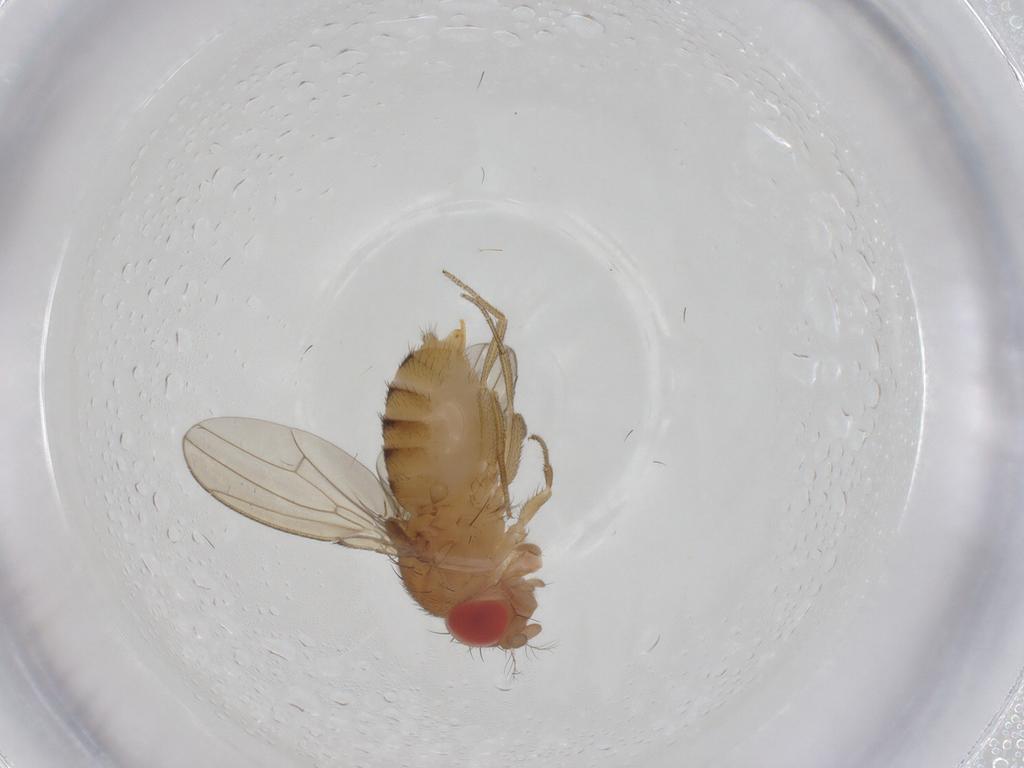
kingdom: Animalia
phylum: Arthropoda
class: Insecta
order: Diptera
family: Drosophilidae
